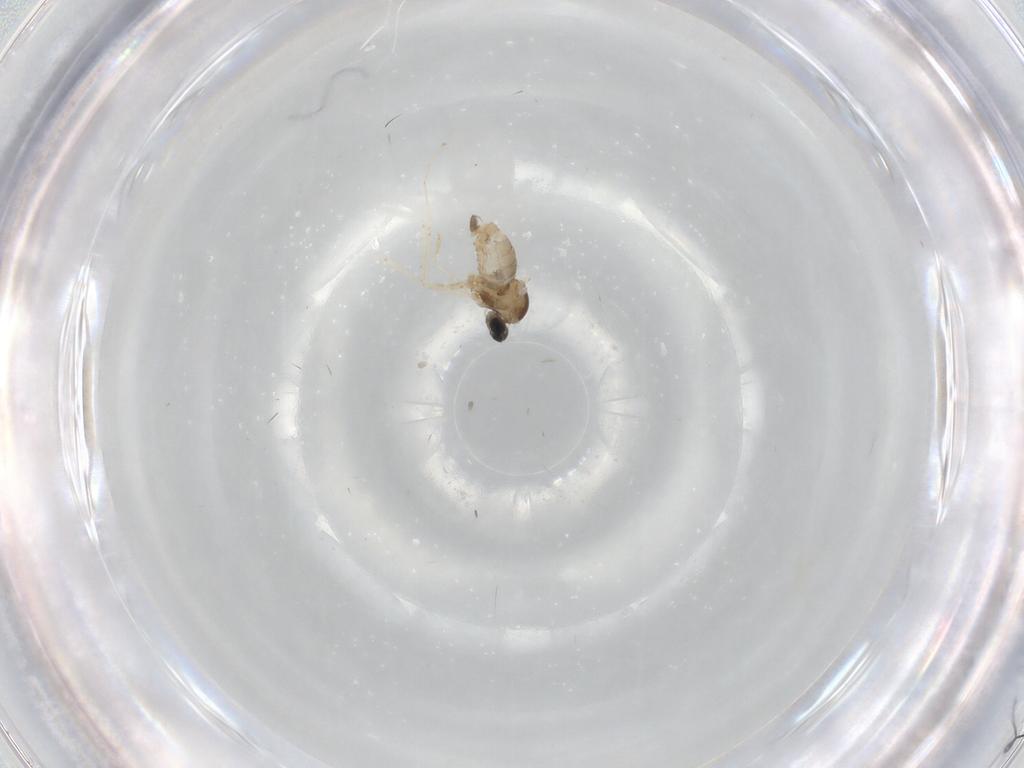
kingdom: Animalia
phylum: Arthropoda
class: Insecta
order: Diptera
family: Cecidomyiidae
